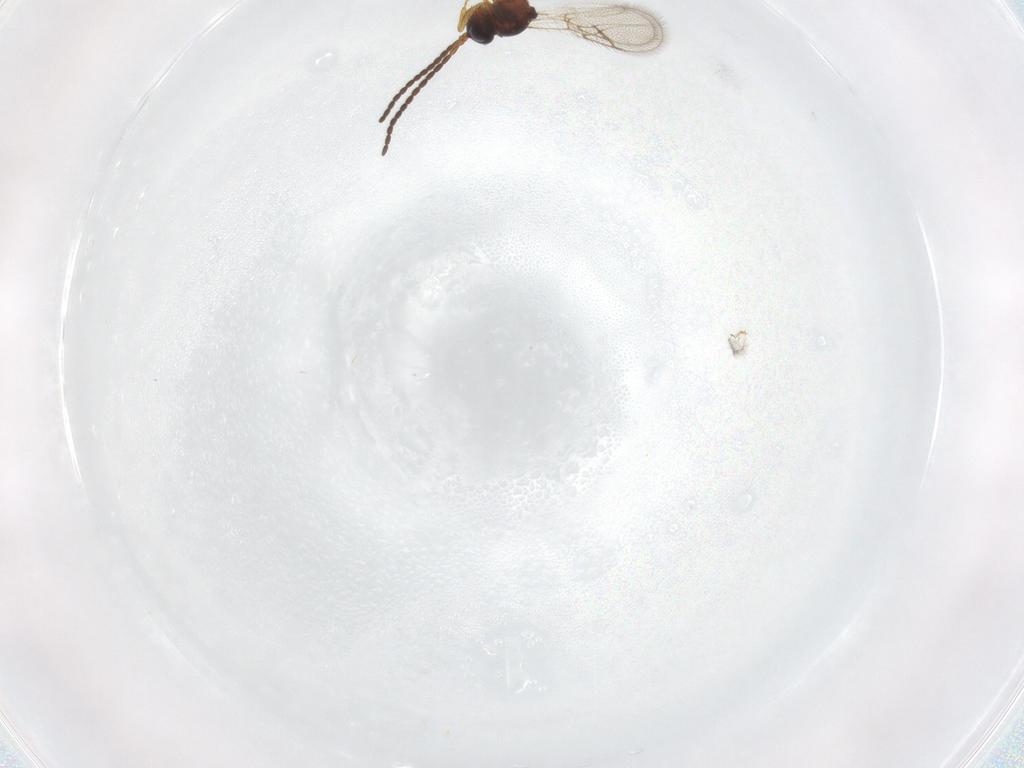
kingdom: Animalia
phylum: Arthropoda
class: Insecta
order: Hymenoptera
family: Figitidae
